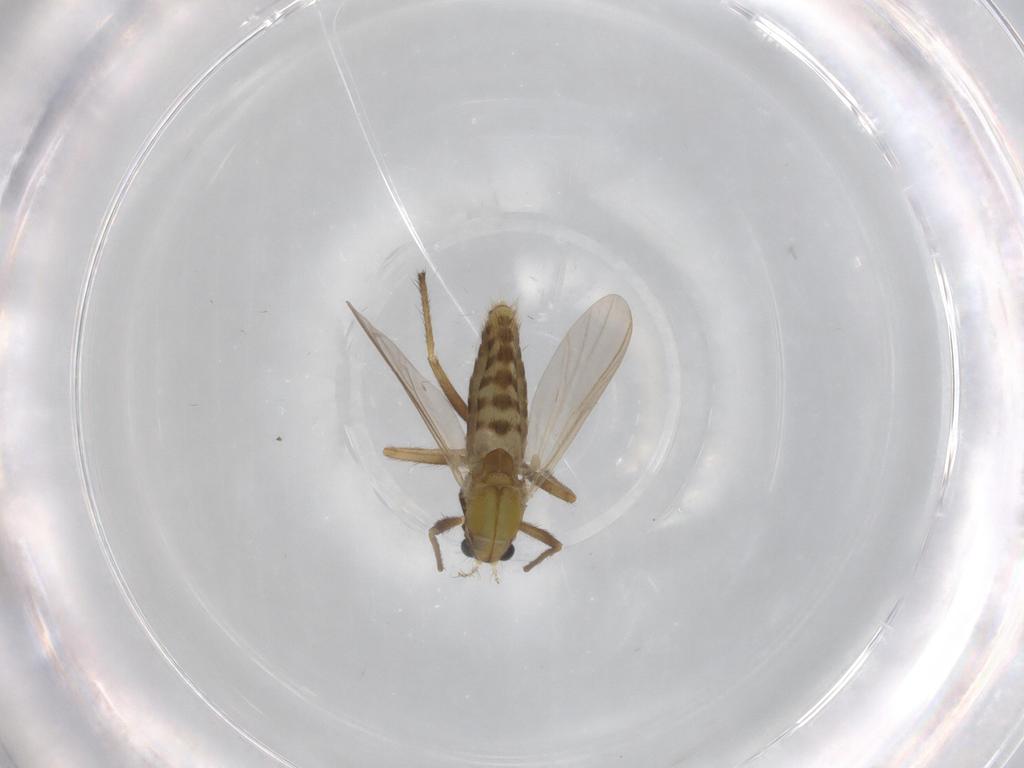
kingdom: Animalia
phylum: Arthropoda
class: Insecta
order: Diptera
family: Chironomidae
